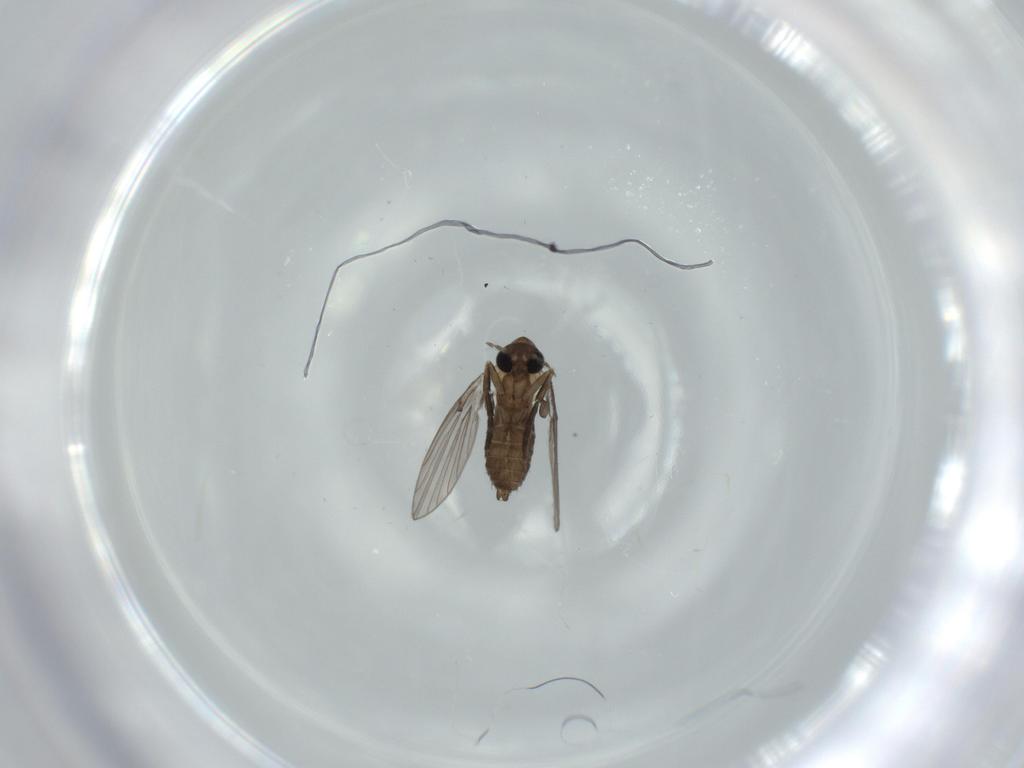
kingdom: Animalia
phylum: Arthropoda
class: Insecta
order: Diptera
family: Psychodidae
